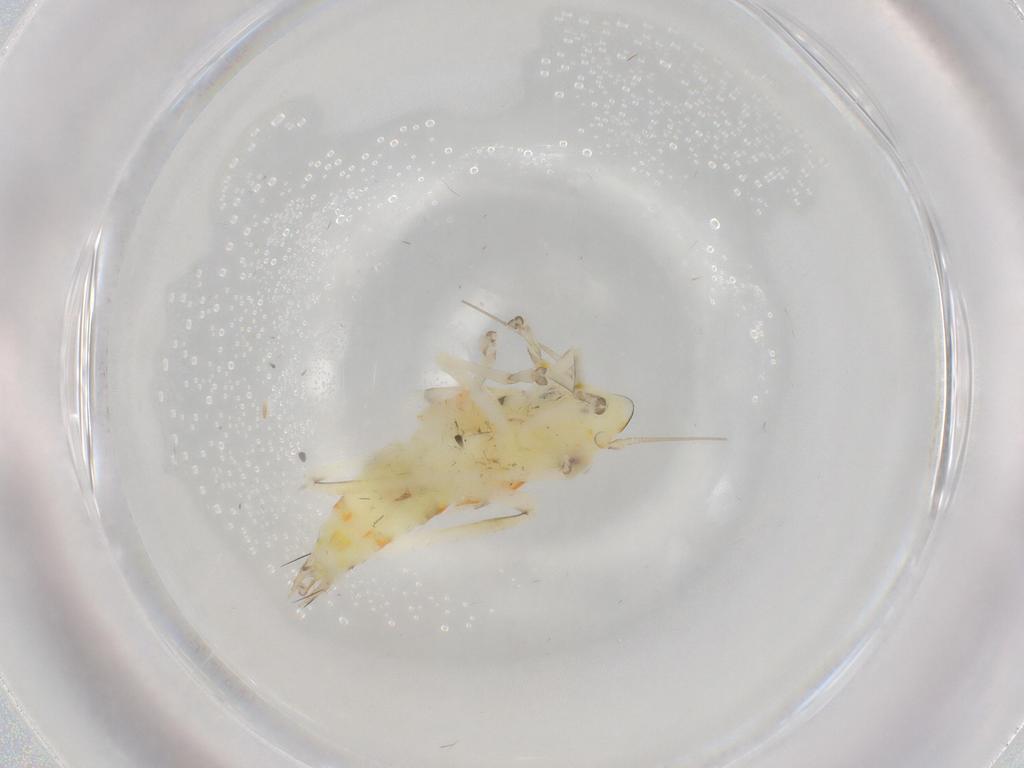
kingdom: Animalia
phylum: Arthropoda
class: Insecta
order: Hemiptera
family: Cicadellidae
